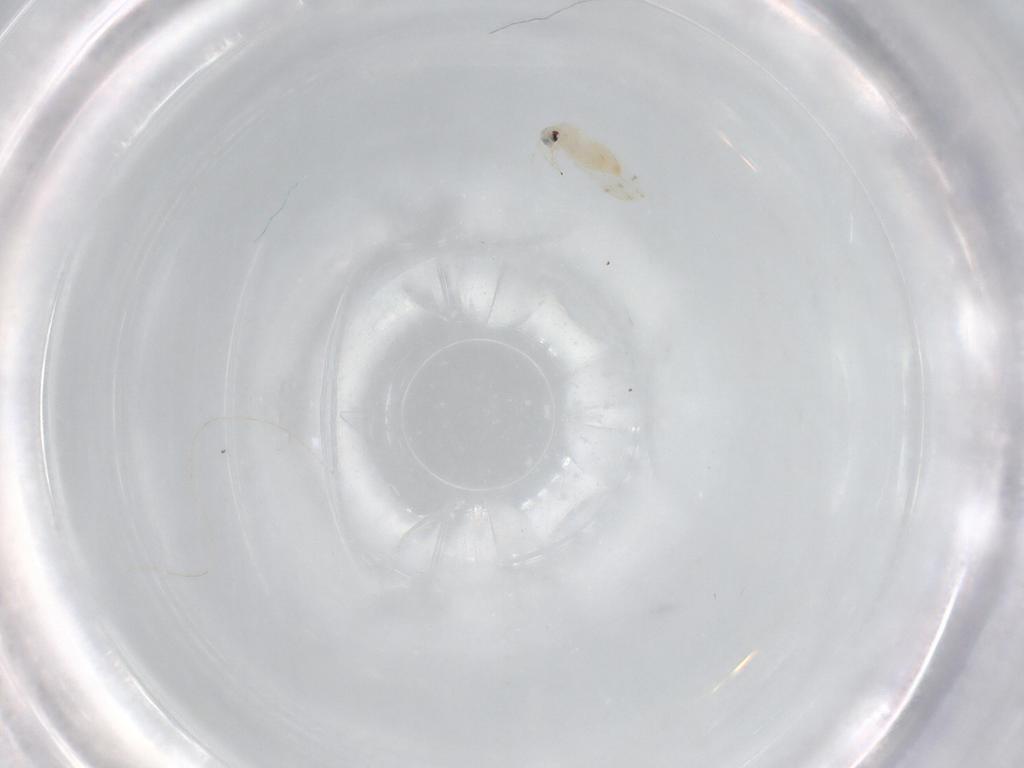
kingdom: Animalia
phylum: Arthropoda
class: Insecta
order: Hemiptera
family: Aleyrodidae
